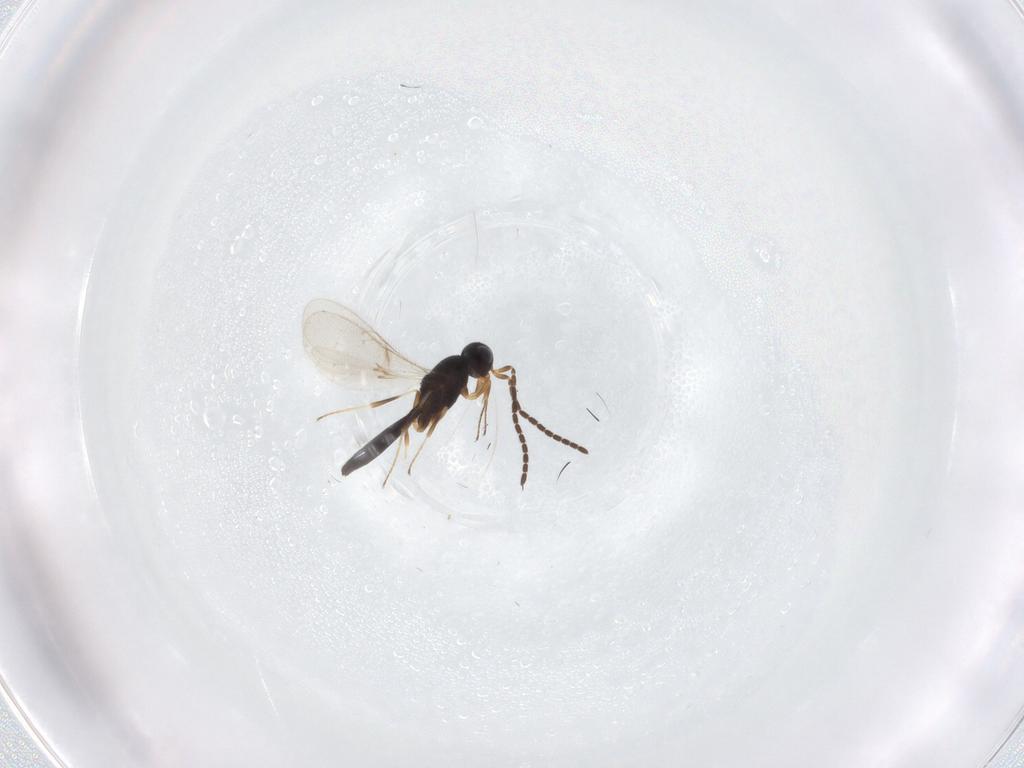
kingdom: Animalia
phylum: Arthropoda
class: Insecta
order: Hymenoptera
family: Scelionidae
